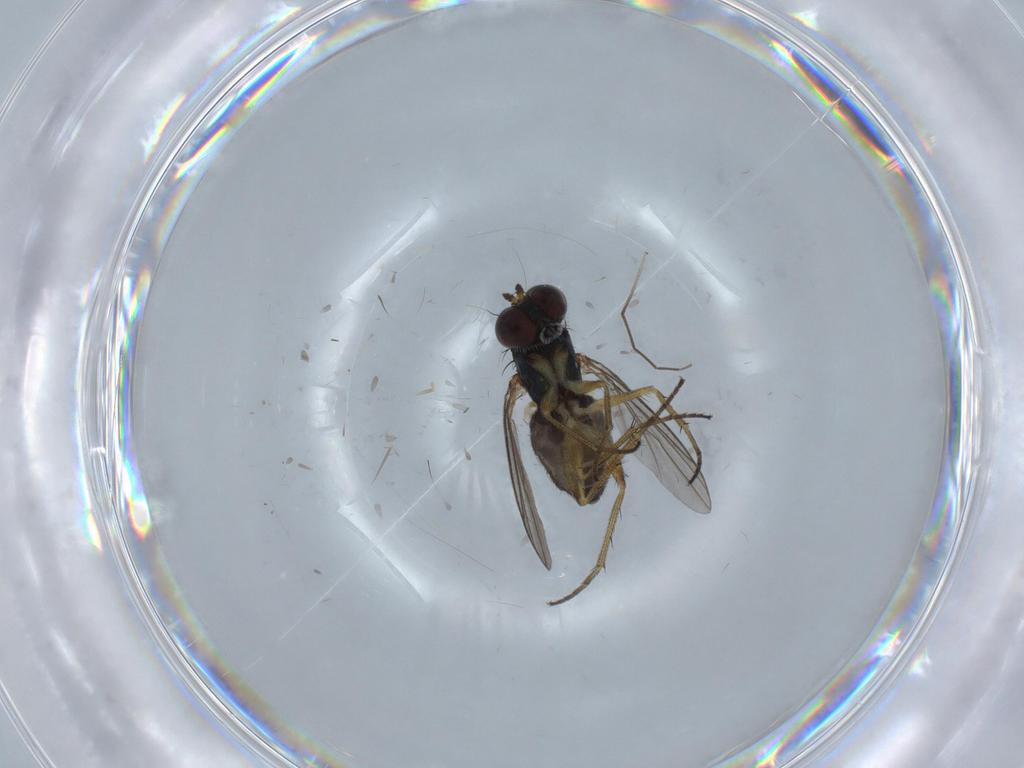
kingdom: Animalia
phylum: Arthropoda
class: Insecta
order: Diptera
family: Chironomidae
